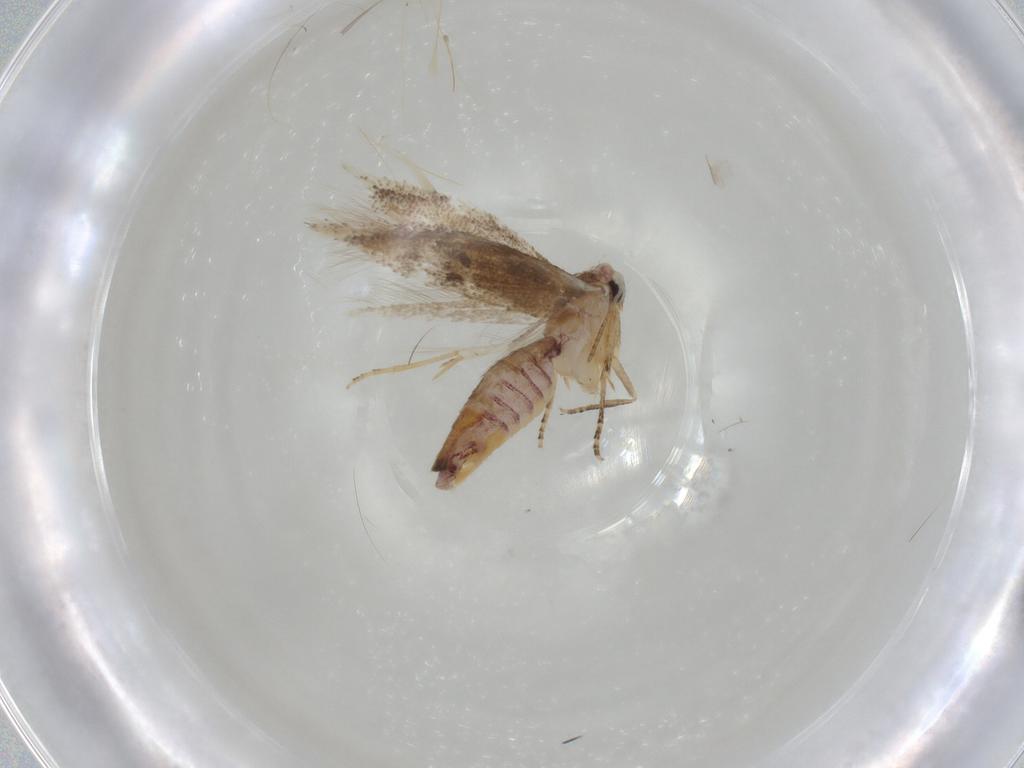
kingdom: Animalia
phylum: Arthropoda
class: Insecta
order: Lepidoptera
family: Bucculatricidae
